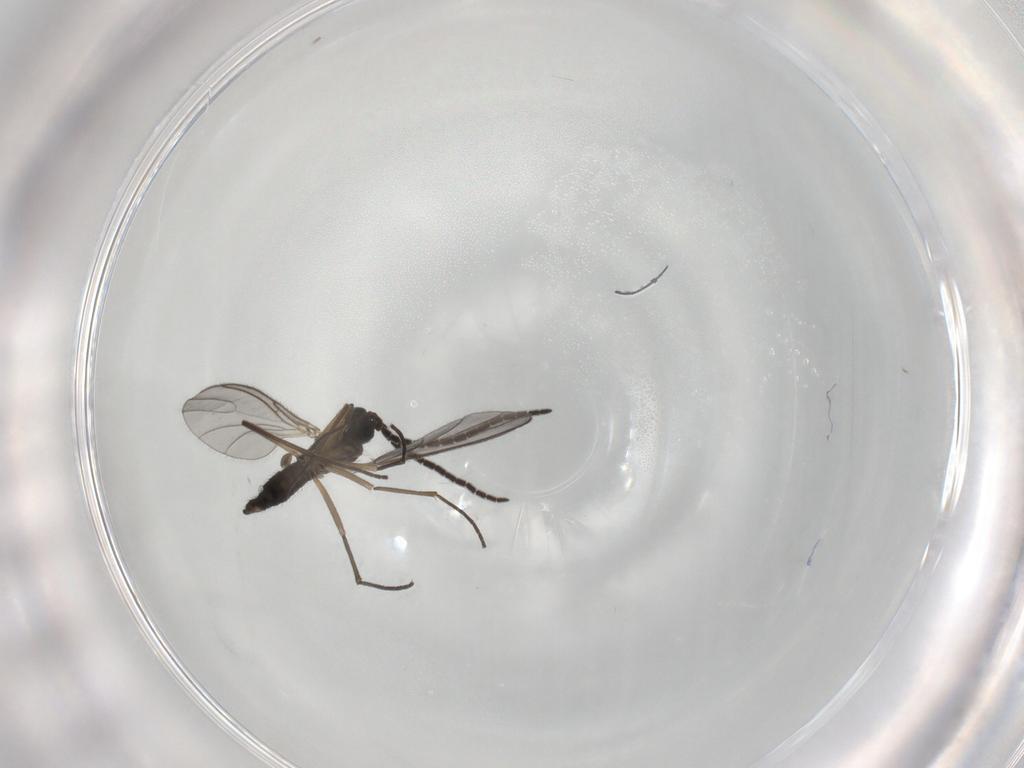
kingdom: Animalia
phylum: Arthropoda
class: Insecta
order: Diptera
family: Sciaridae
